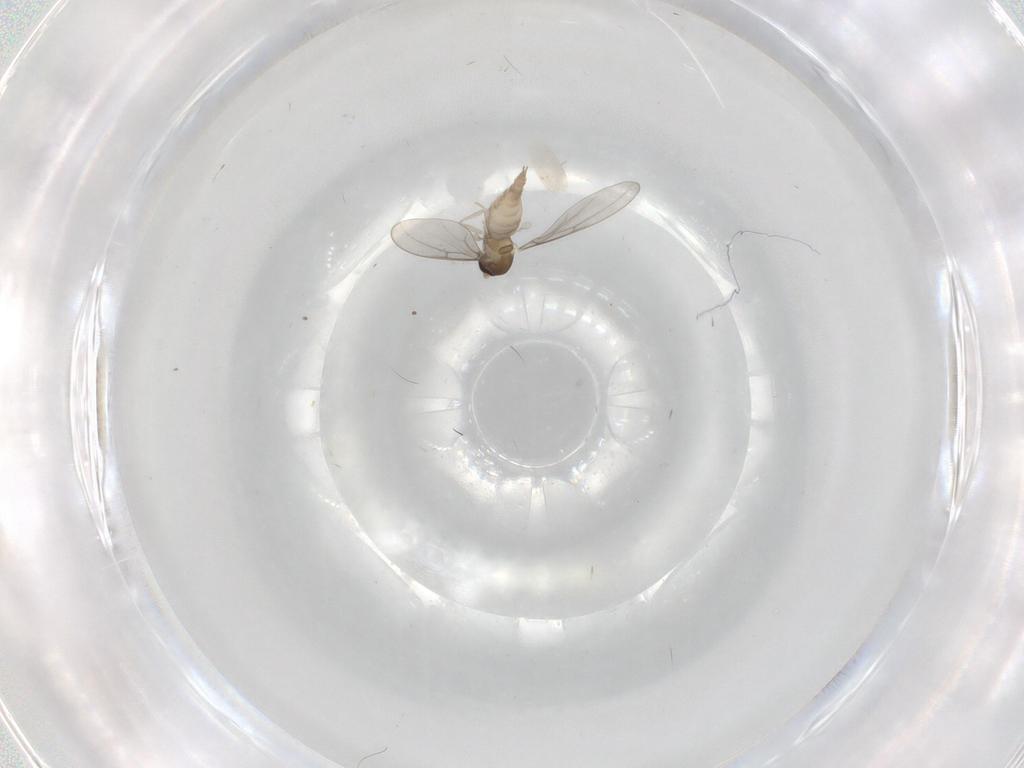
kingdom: Animalia
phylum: Arthropoda
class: Insecta
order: Diptera
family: Cecidomyiidae
